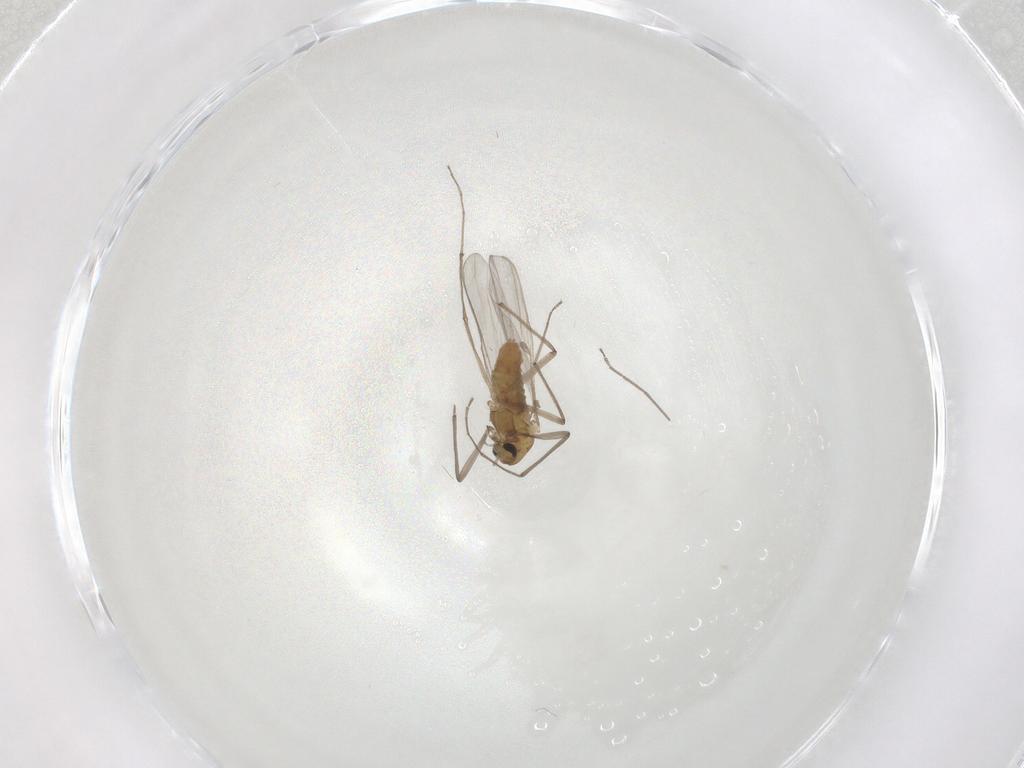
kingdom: Animalia
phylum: Arthropoda
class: Insecta
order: Diptera
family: Chironomidae
